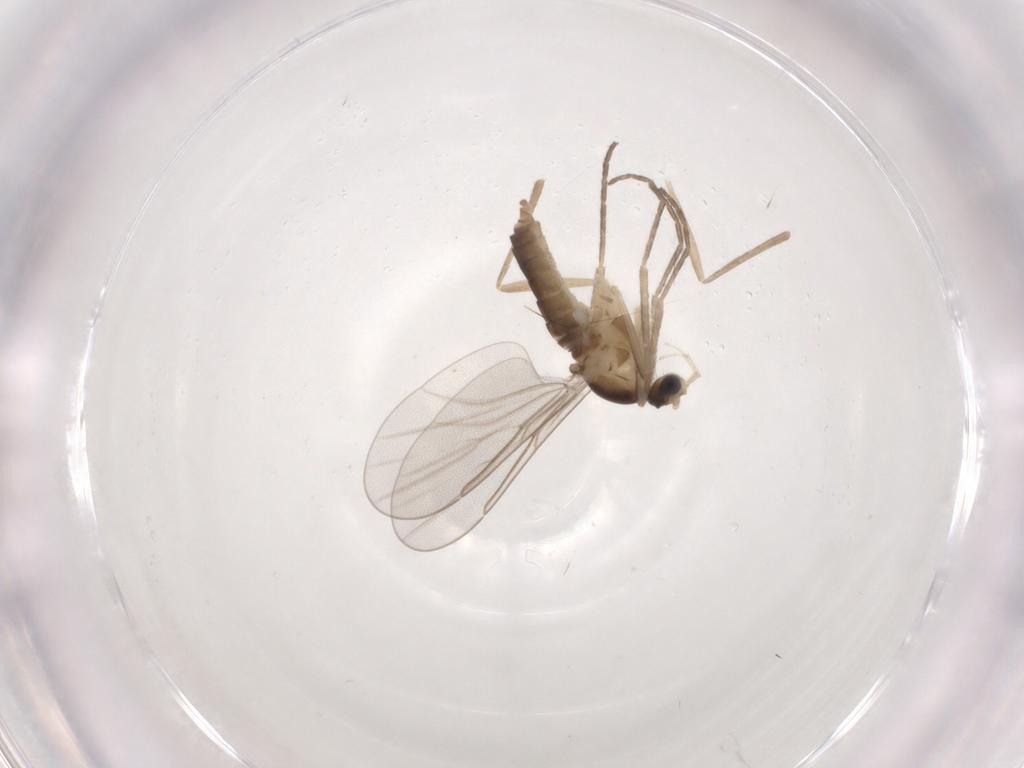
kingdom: Animalia
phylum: Arthropoda
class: Insecta
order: Diptera
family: Cecidomyiidae
